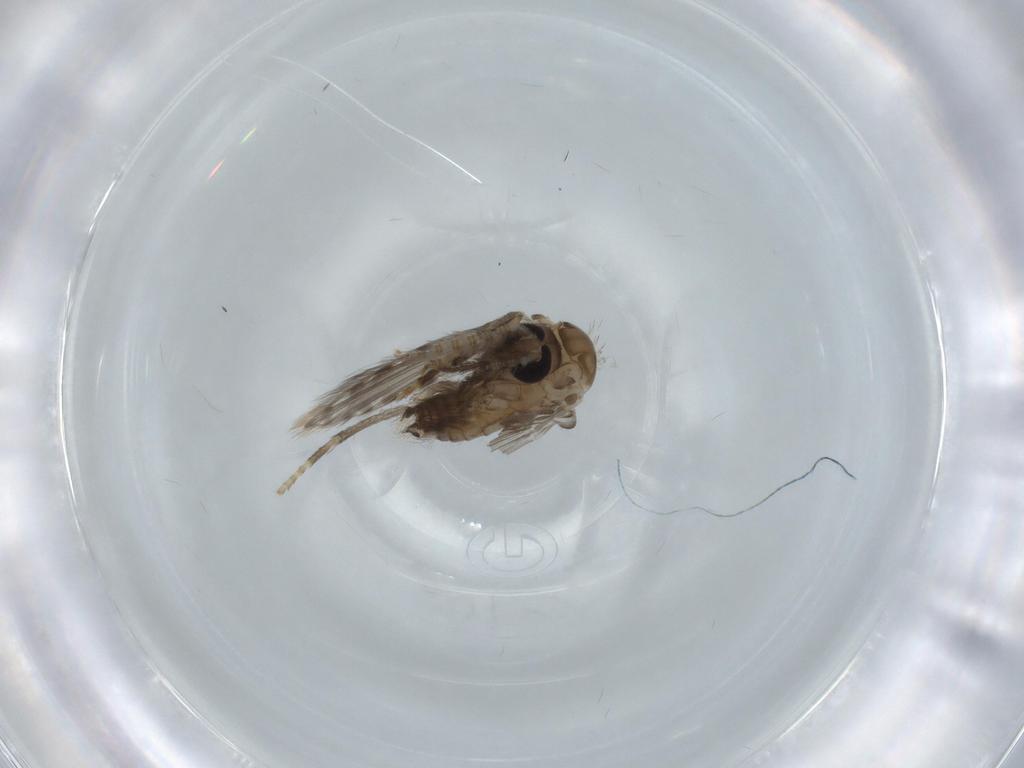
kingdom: Animalia
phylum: Arthropoda
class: Insecta
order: Diptera
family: Cecidomyiidae
